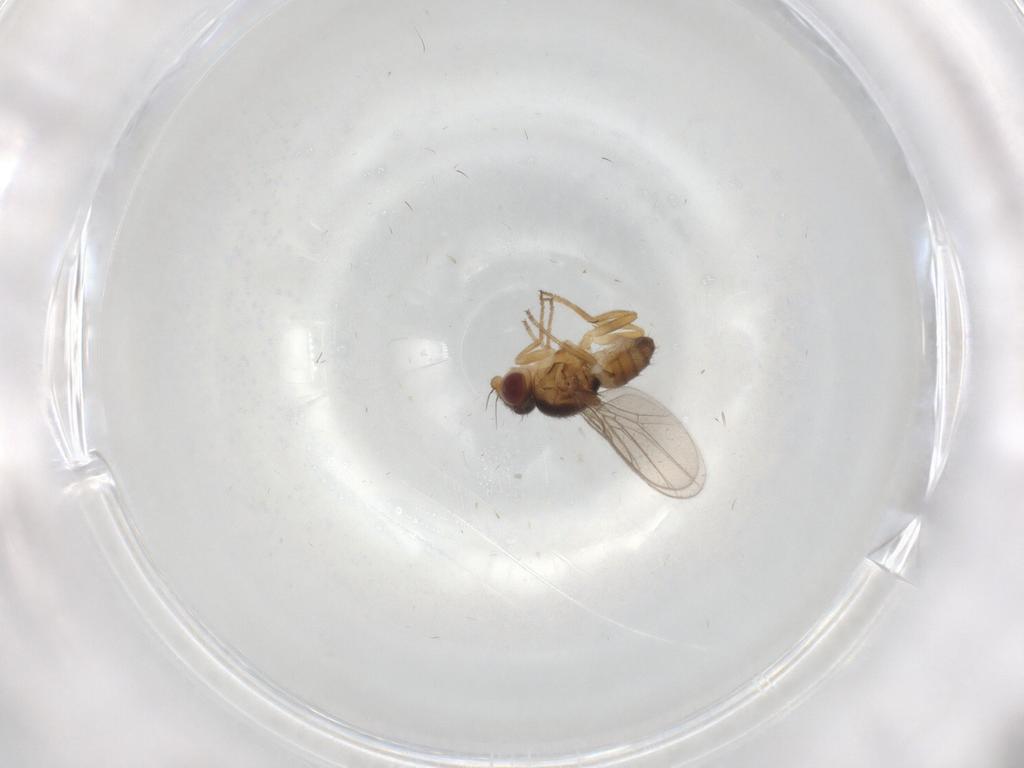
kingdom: Animalia
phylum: Arthropoda
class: Insecta
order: Diptera
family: Chloropidae
